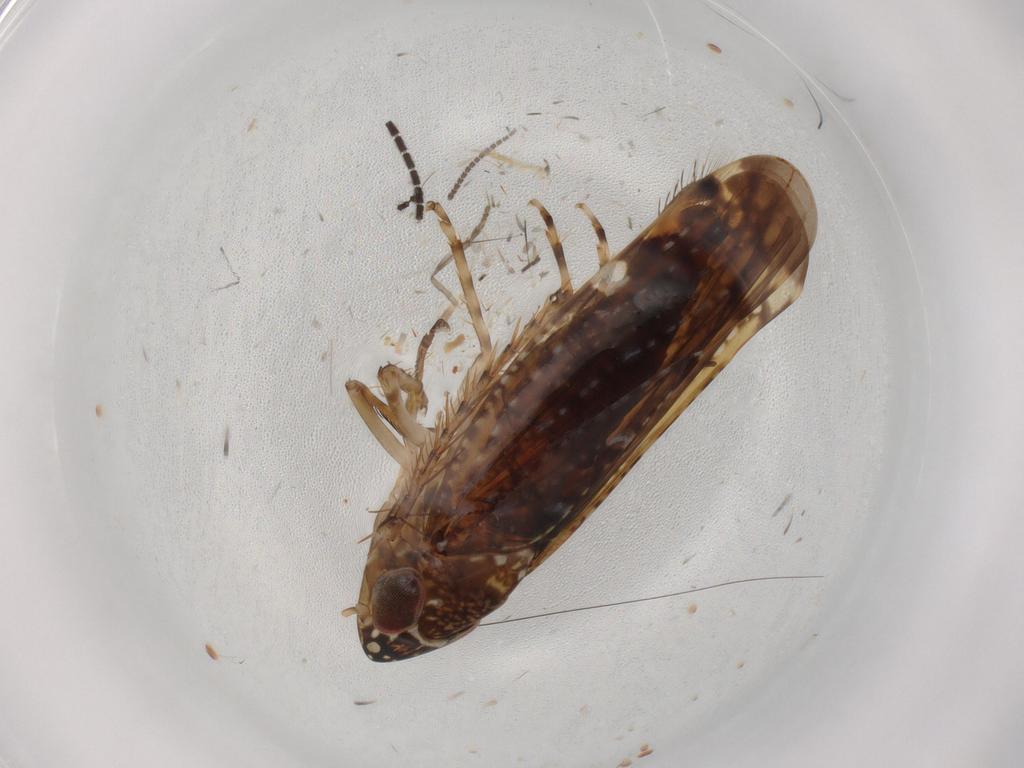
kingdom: Animalia
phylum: Arthropoda
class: Insecta
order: Hemiptera
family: Cicadellidae
